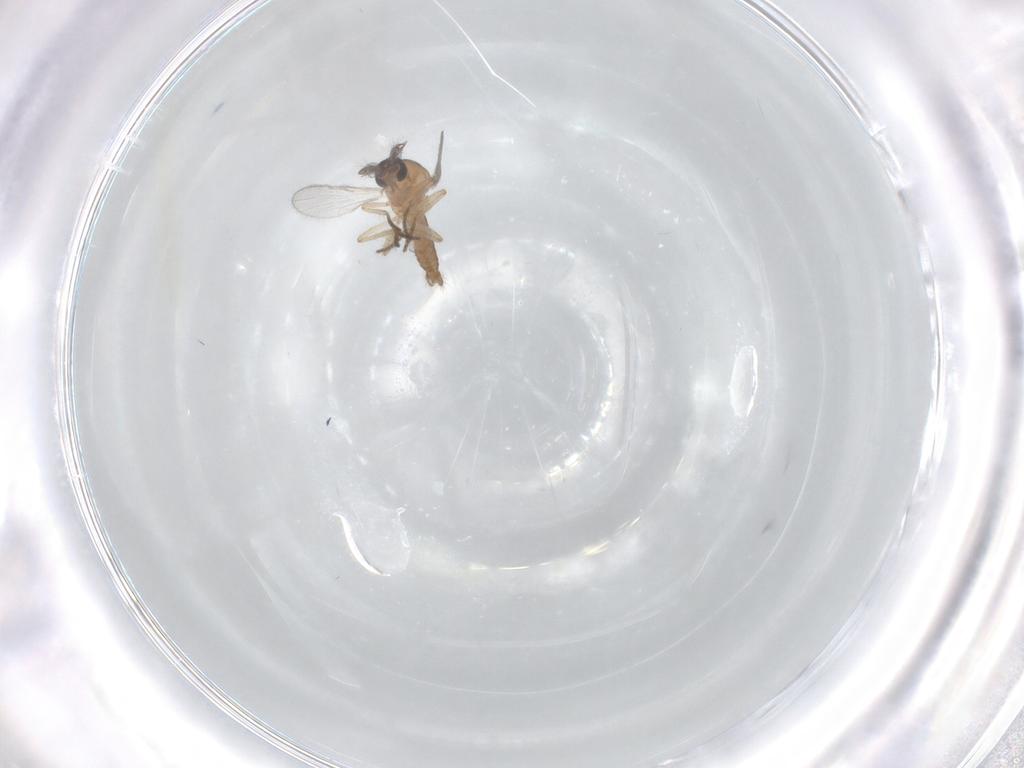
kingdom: Animalia
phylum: Arthropoda
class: Insecta
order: Diptera
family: Ceratopogonidae
